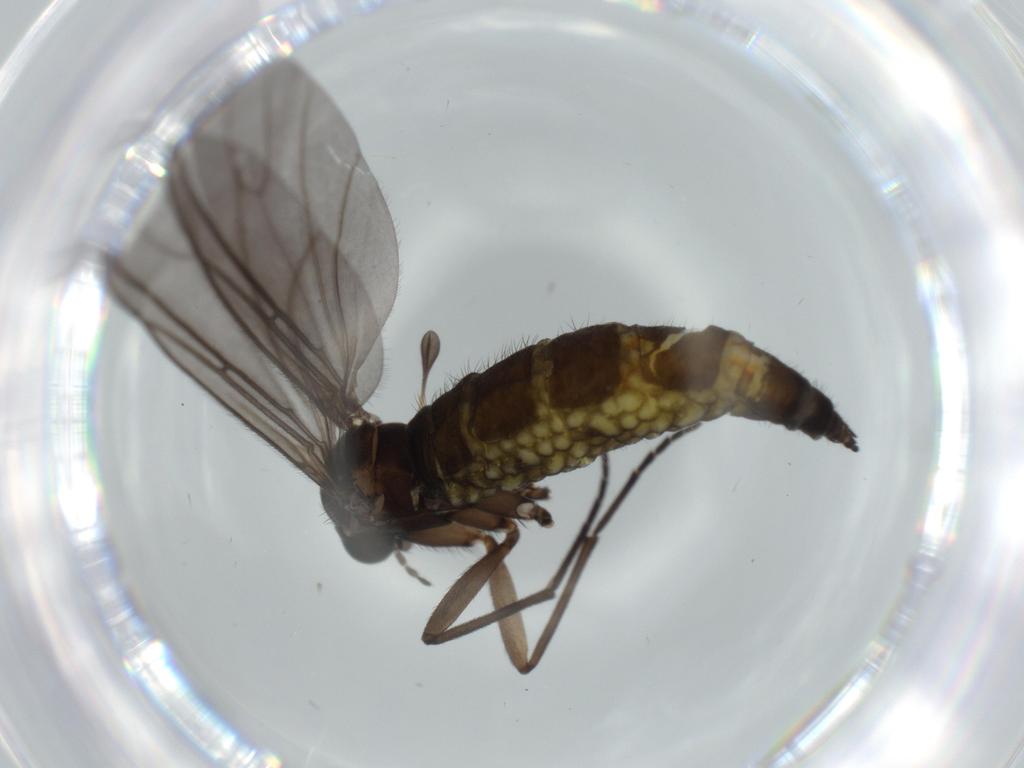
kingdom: Animalia
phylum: Arthropoda
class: Insecta
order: Diptera
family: Sciaridae
